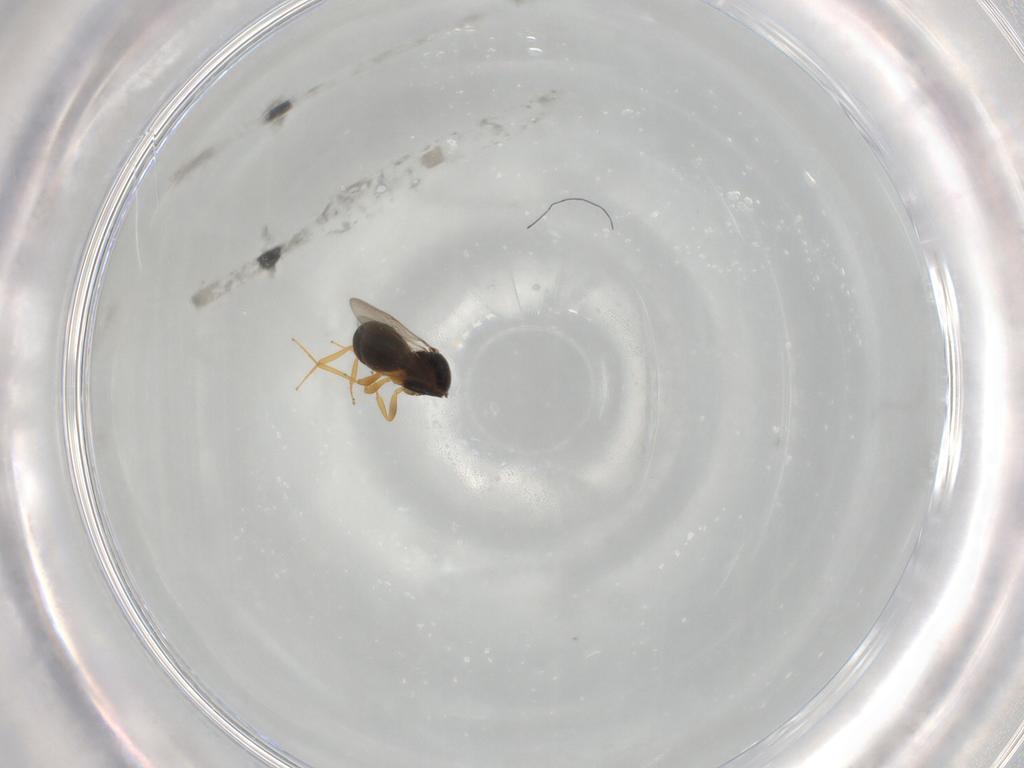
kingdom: Animalia
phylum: Arthropoda
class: Insecta
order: Hymenoptera
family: Scelionidae
